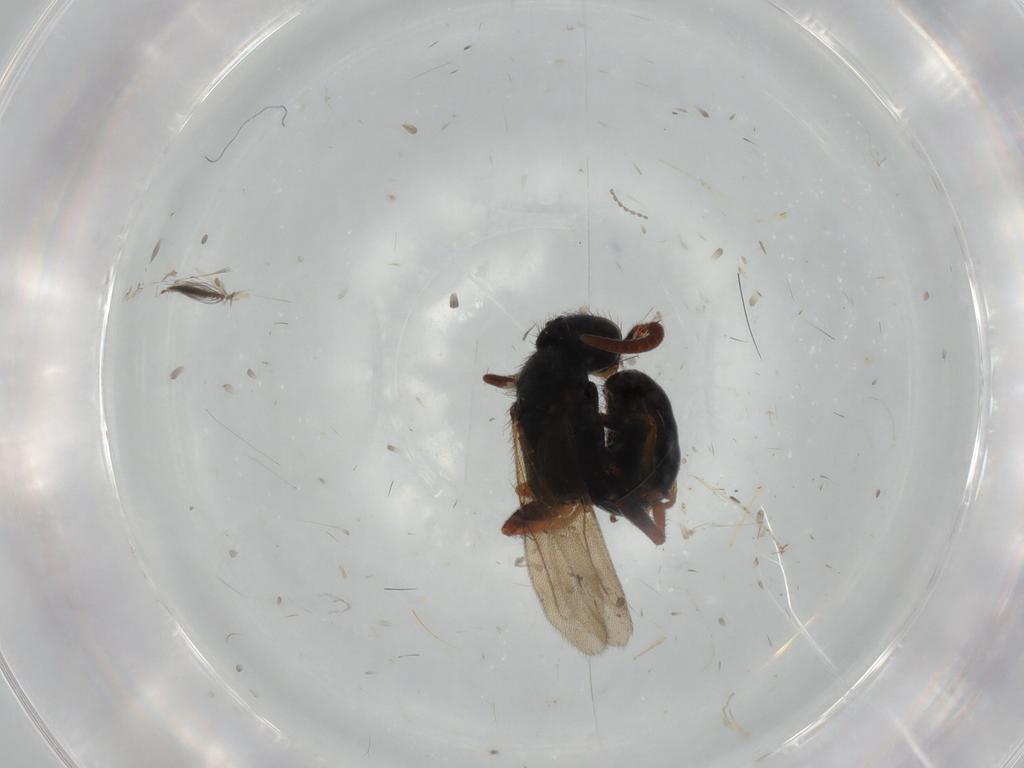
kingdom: Animalia
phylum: Arthropoda
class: Insecta
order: Hymenoptera
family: Bethylidae
